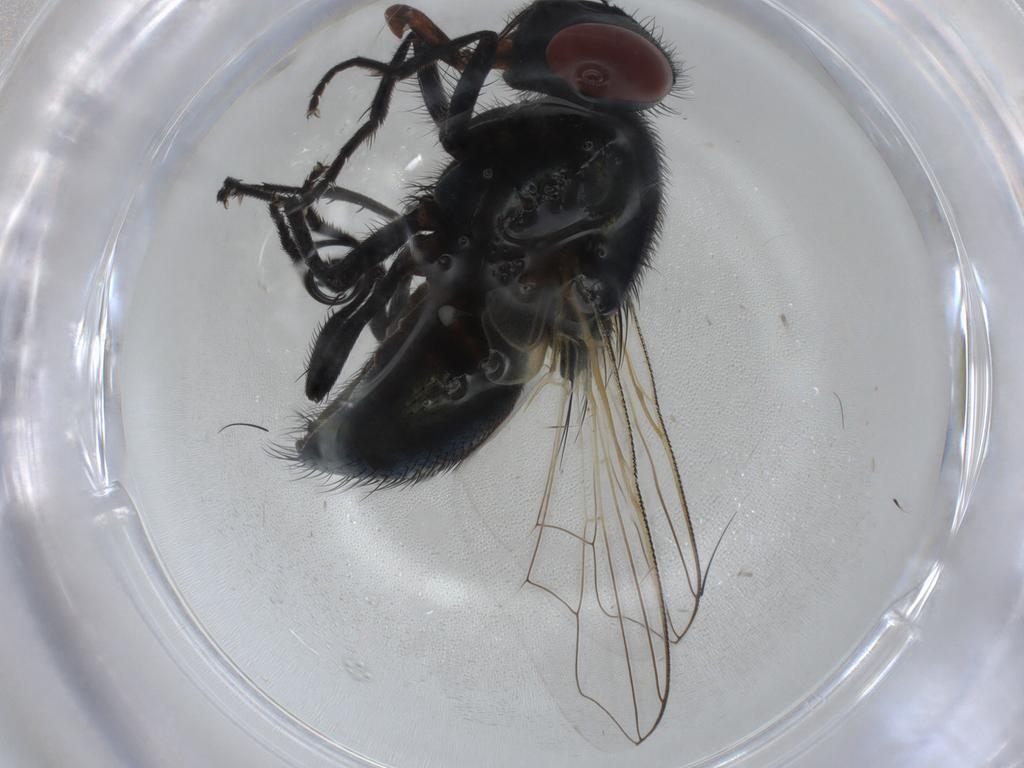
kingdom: Animalia
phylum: Arthropoda
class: Insecta
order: Diptera
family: Muscidae
